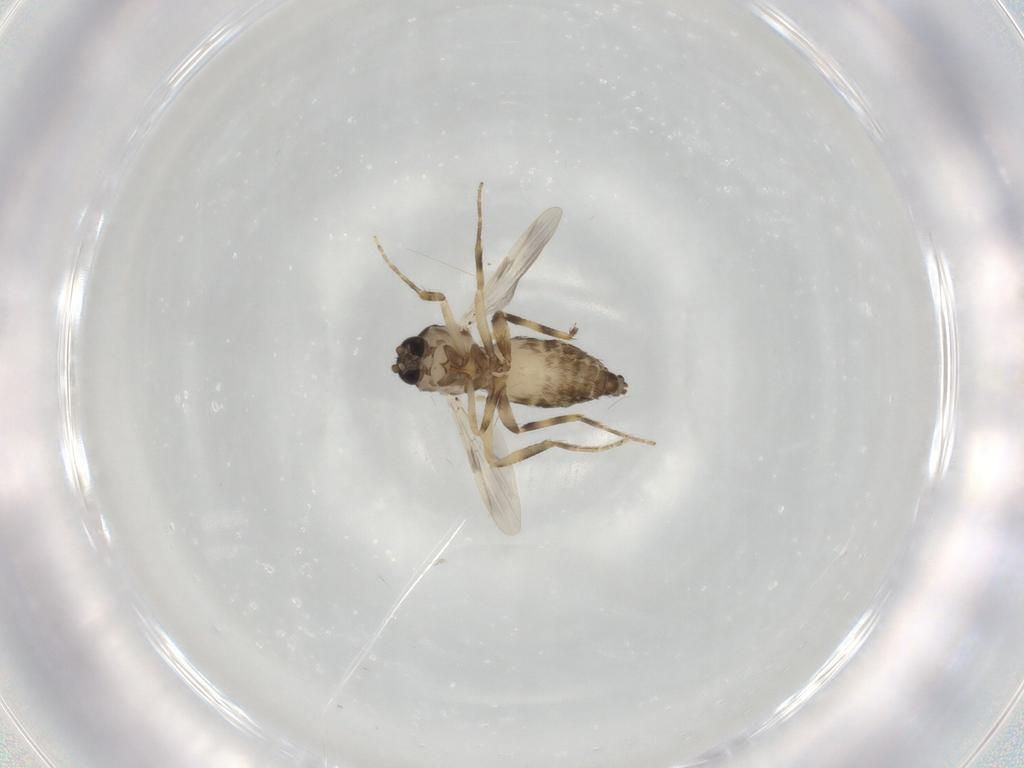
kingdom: Animalia
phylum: Arthropoda
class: Insecta
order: Diptera
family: Ceratopogonidae
